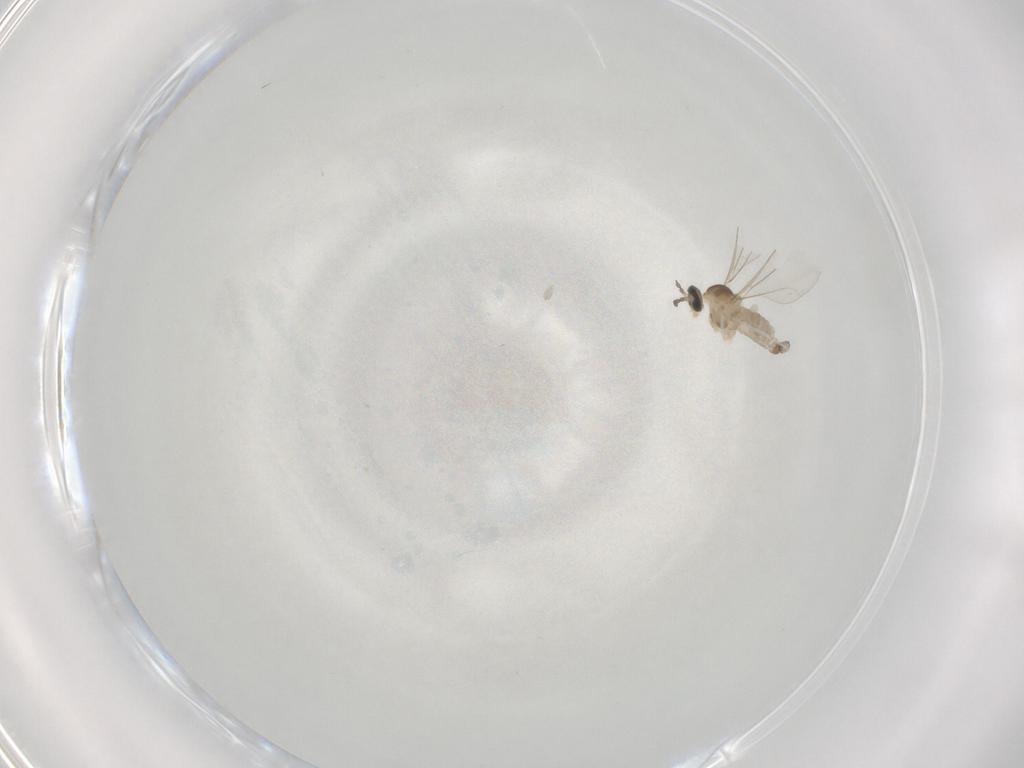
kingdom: Animalia
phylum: Arthropoda
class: Insecta
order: Diptera
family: Cecidomyiidae
